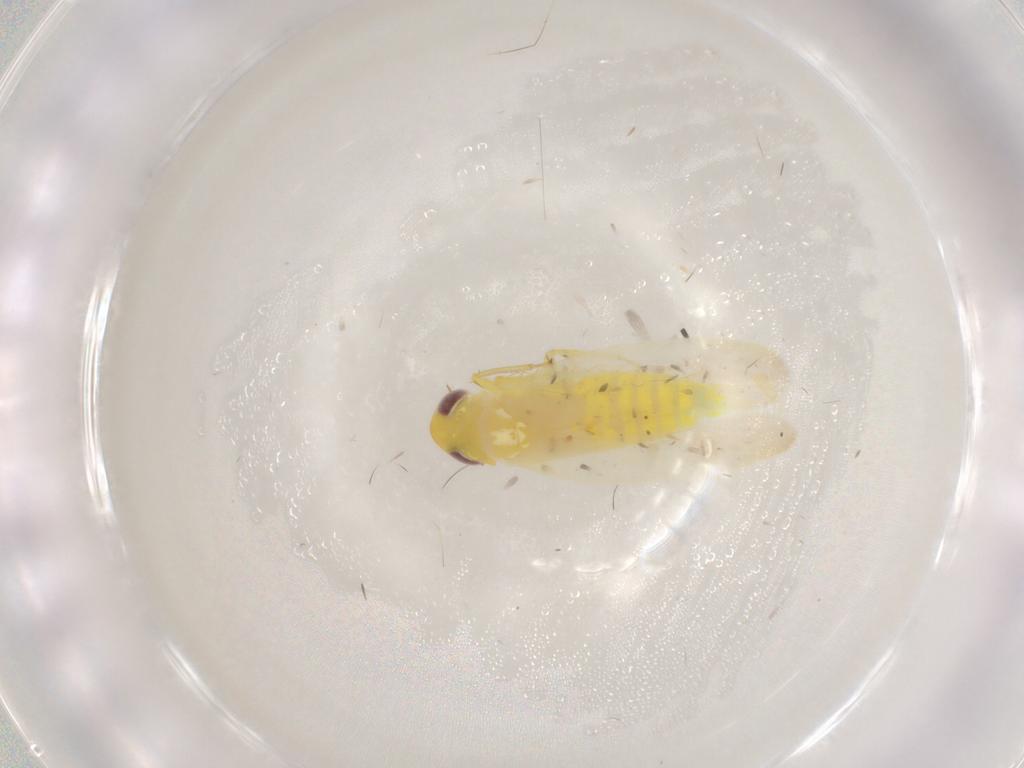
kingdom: Animalia
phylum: Arthropoda
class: Insecta
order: Hemiptera
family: Cicadellidae
